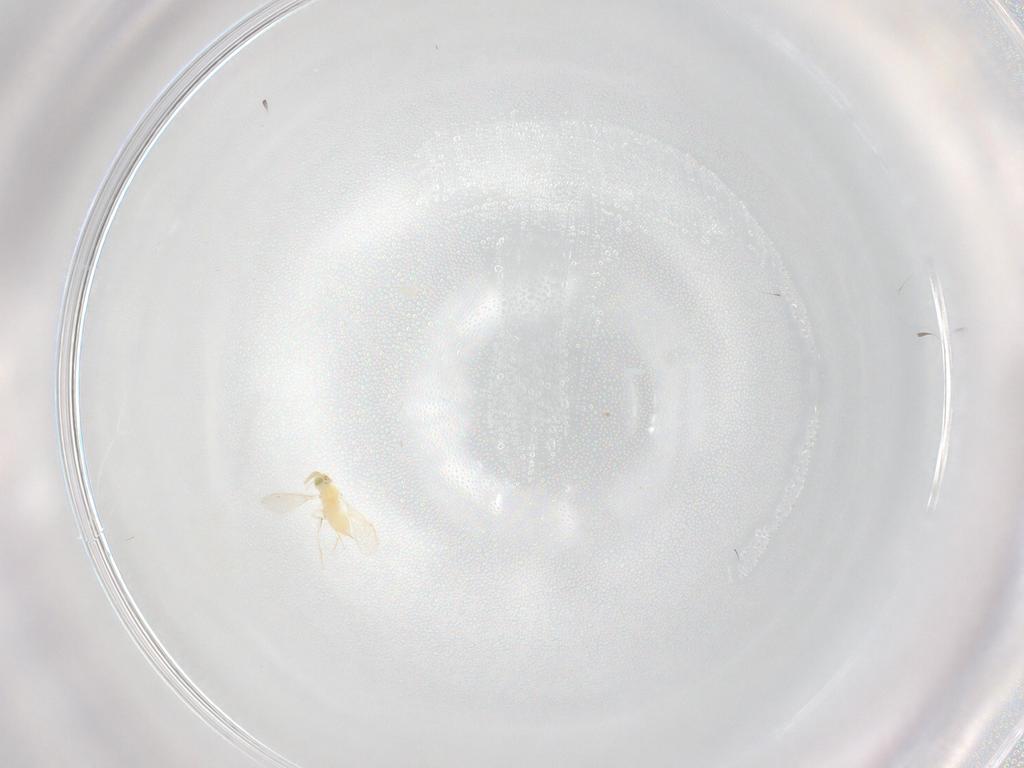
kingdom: Animalia
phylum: Arthropoda
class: Insecta
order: Hymenoptera
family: Aphelinidae
